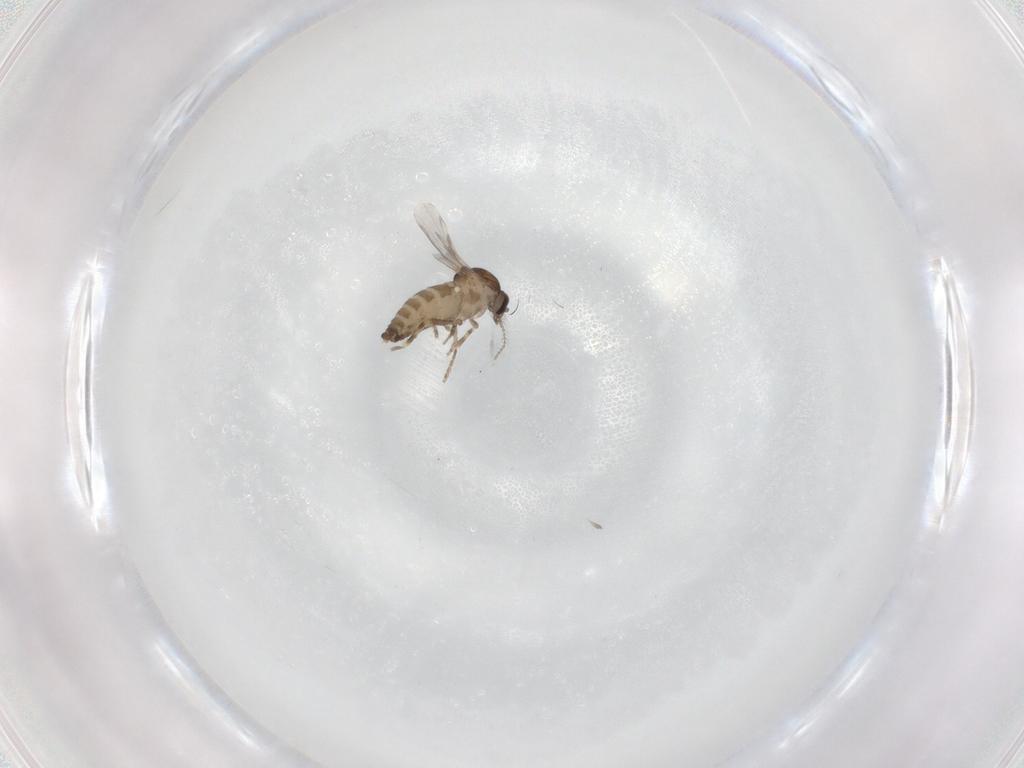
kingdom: Animalia
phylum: Arthropoda
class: Insecta
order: Diptera
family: Ceratopogonidae
